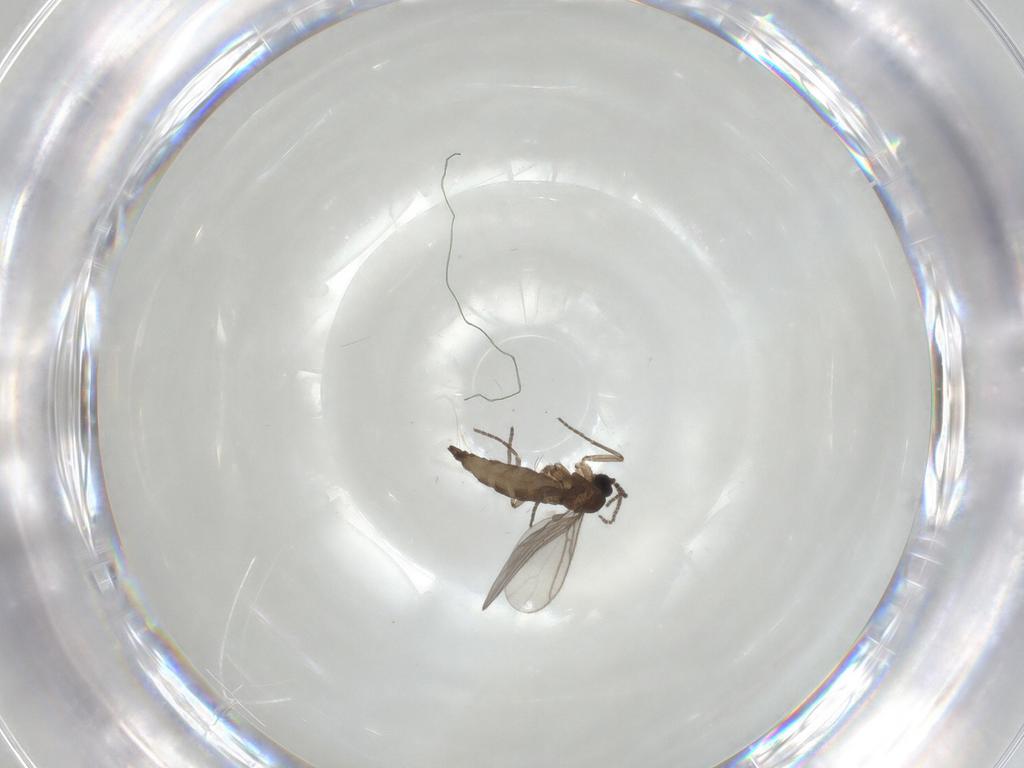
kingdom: Animalia
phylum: Arthropoda
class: Insecta
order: Diptera
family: Sciaridae
